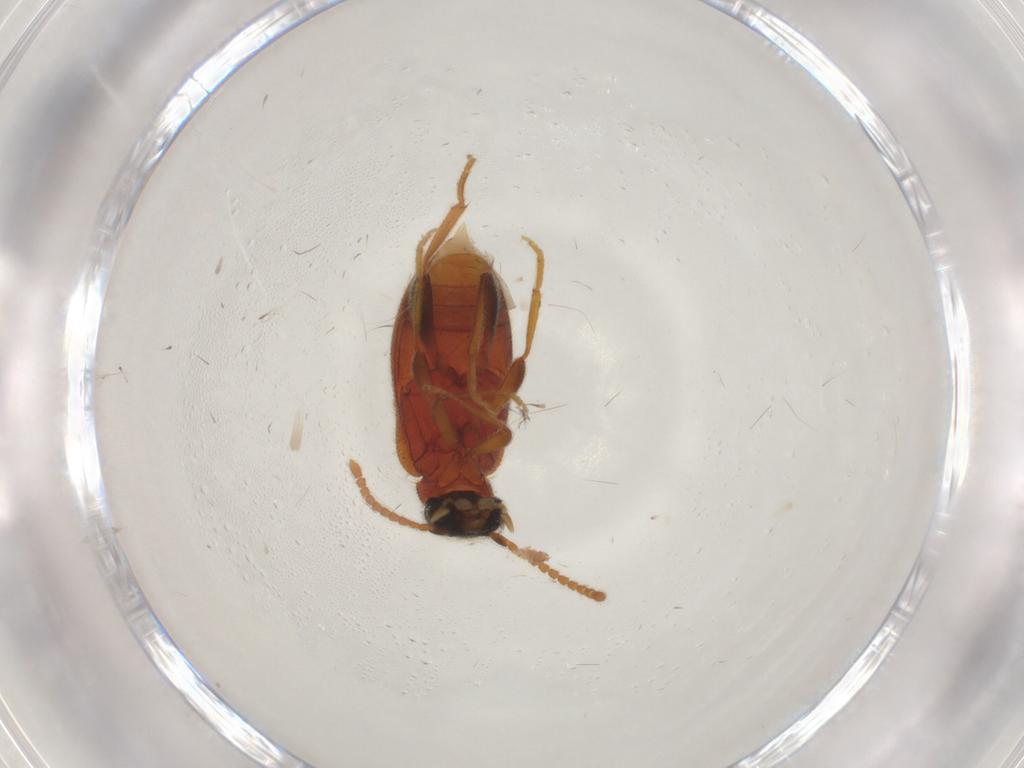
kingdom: Animalia
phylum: Arthropoda
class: Insecta
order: Coleoptera
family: Aderidae
